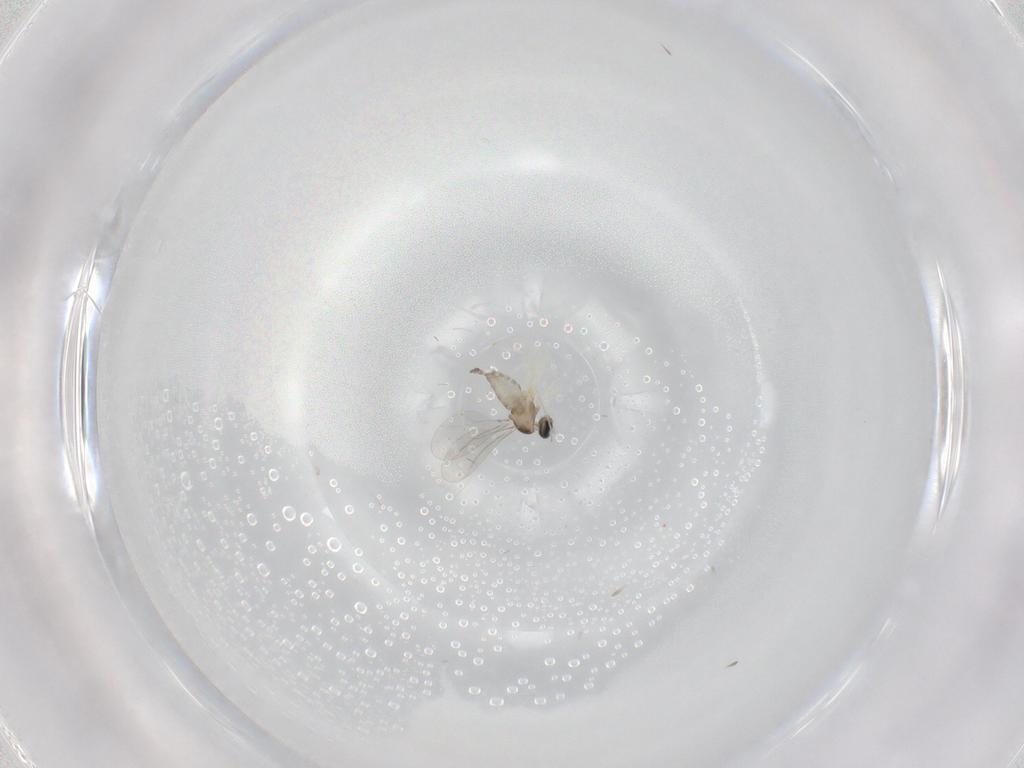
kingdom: Animalia
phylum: Arthropoda
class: Insecta
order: Diptera
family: Cecidomyiidae
